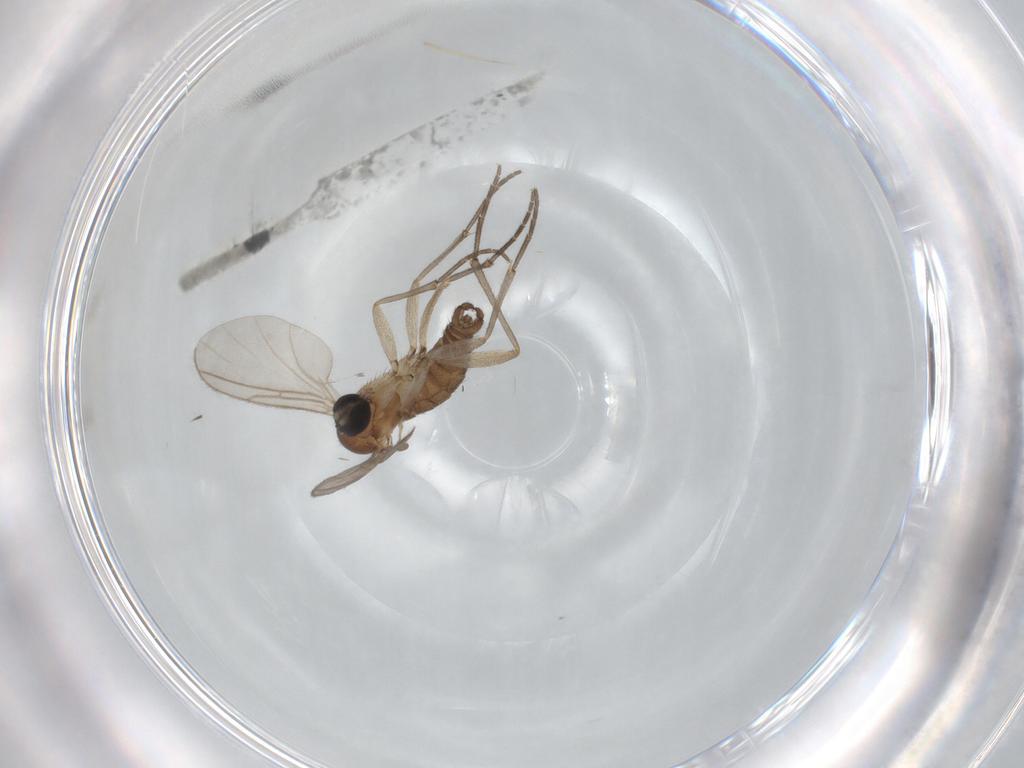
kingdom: Animalia
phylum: Arthropoda
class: Insecta
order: Diptera
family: Sciaridae
